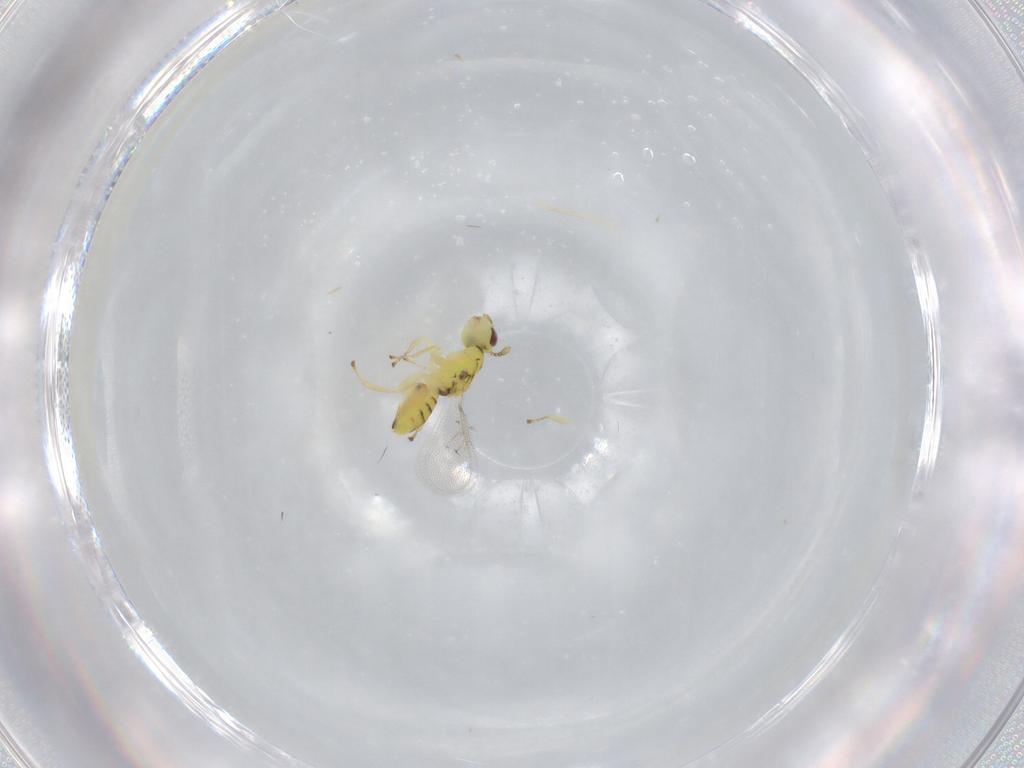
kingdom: Animalia
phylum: Arthropoda
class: Insecta
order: Hymenoptera
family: Eulophidae
